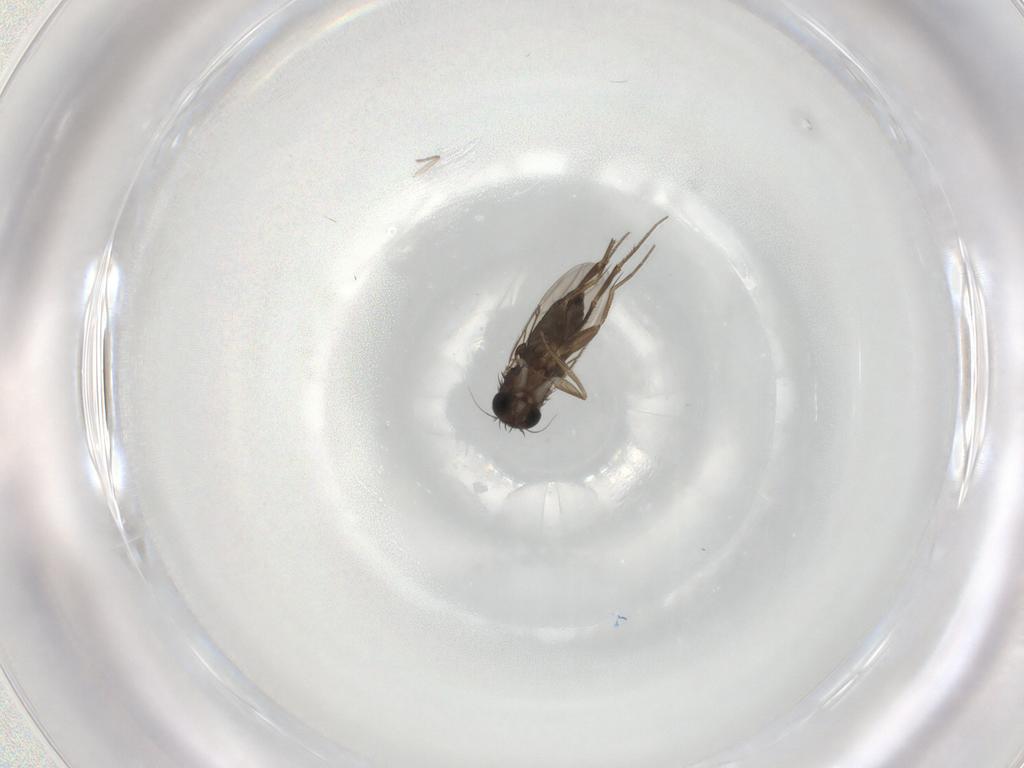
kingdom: Animalia
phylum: Arthropoda
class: Insecta
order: Diptera
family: Phoridae
